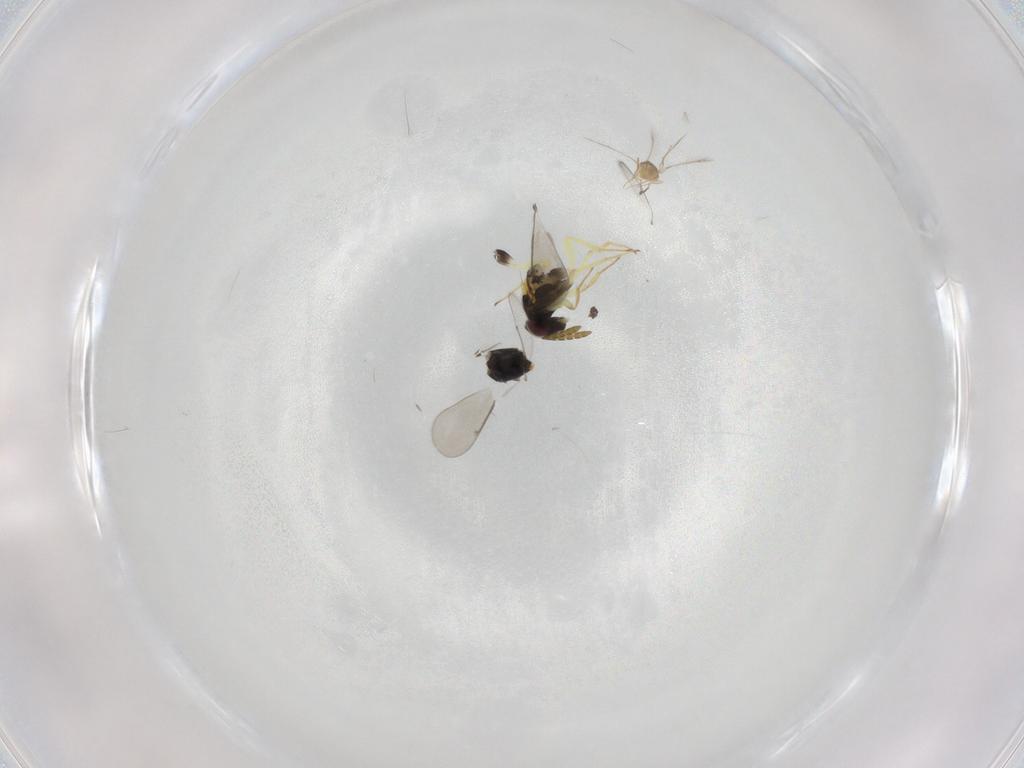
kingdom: Animalia
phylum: Arthropoda
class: Insecta
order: Hymenoptera
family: Aphelinidae
